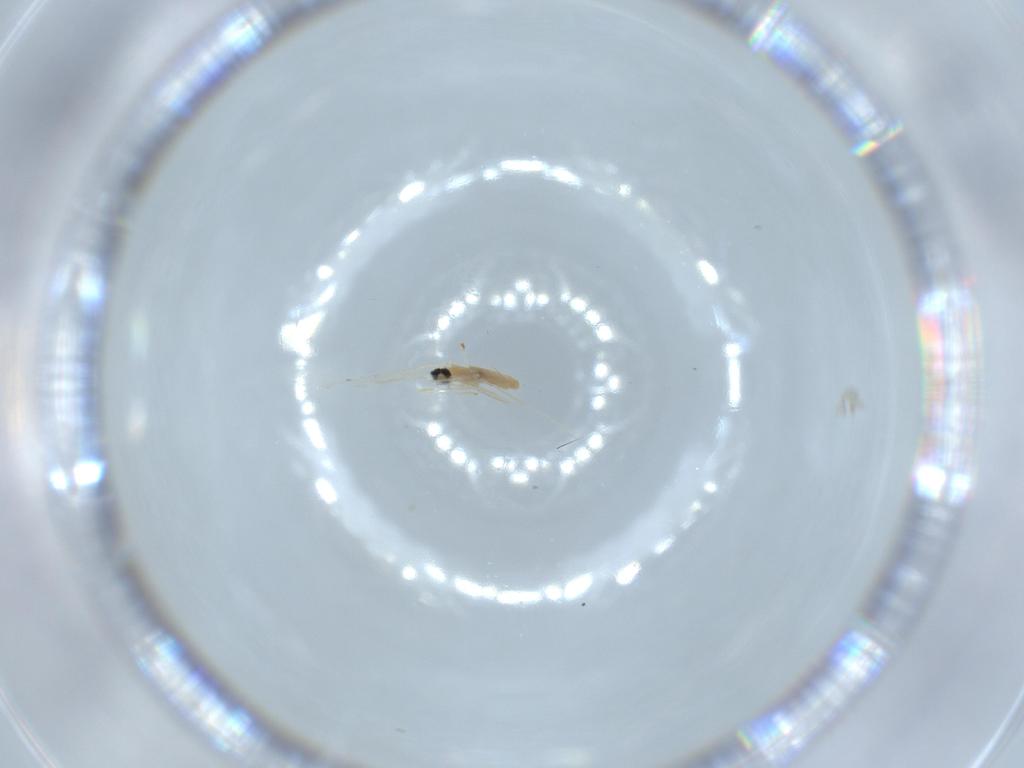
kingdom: Animalia
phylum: Arthropoda
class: Insecta
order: Diptera
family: Cecidomyiidae
